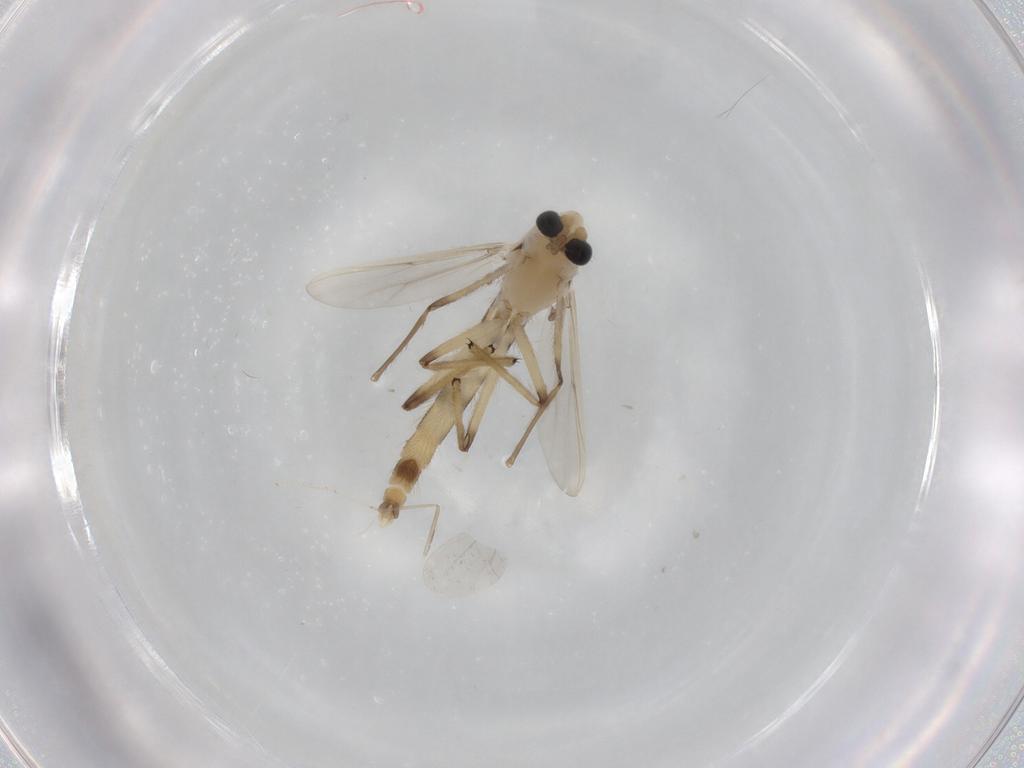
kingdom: Animalia
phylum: Arthropoda
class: Insecta
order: Diptera
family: Chironomidae
